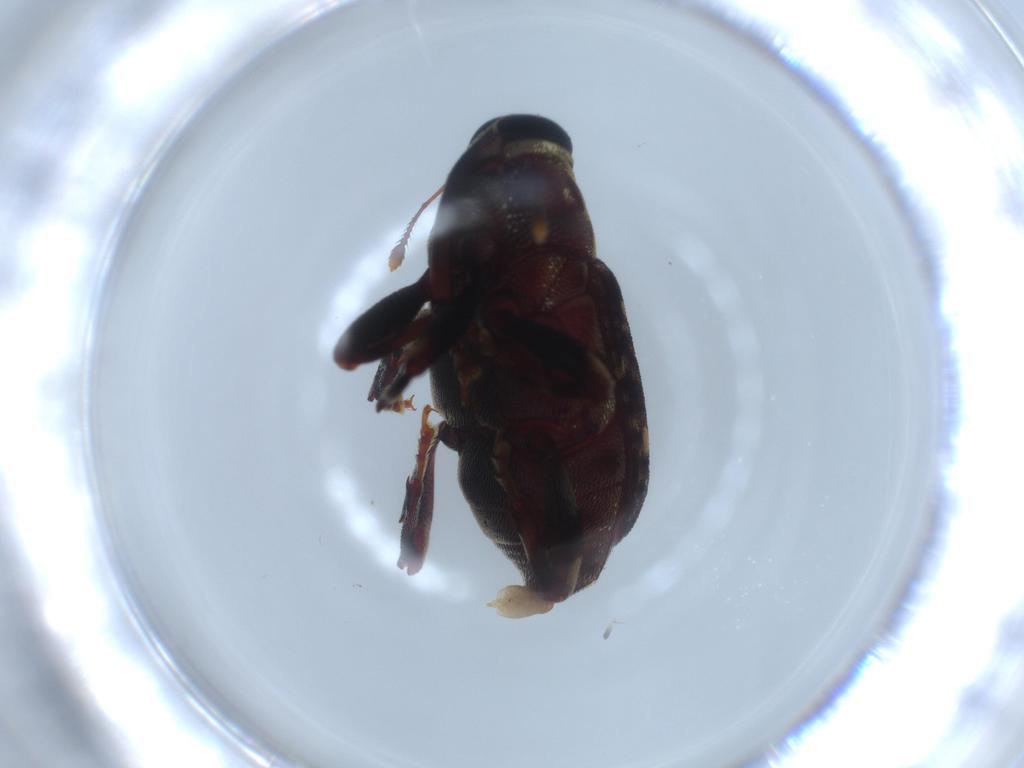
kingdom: Animalia
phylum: Arthropoda
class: Insecta
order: Coleoptera
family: Curculionidae
